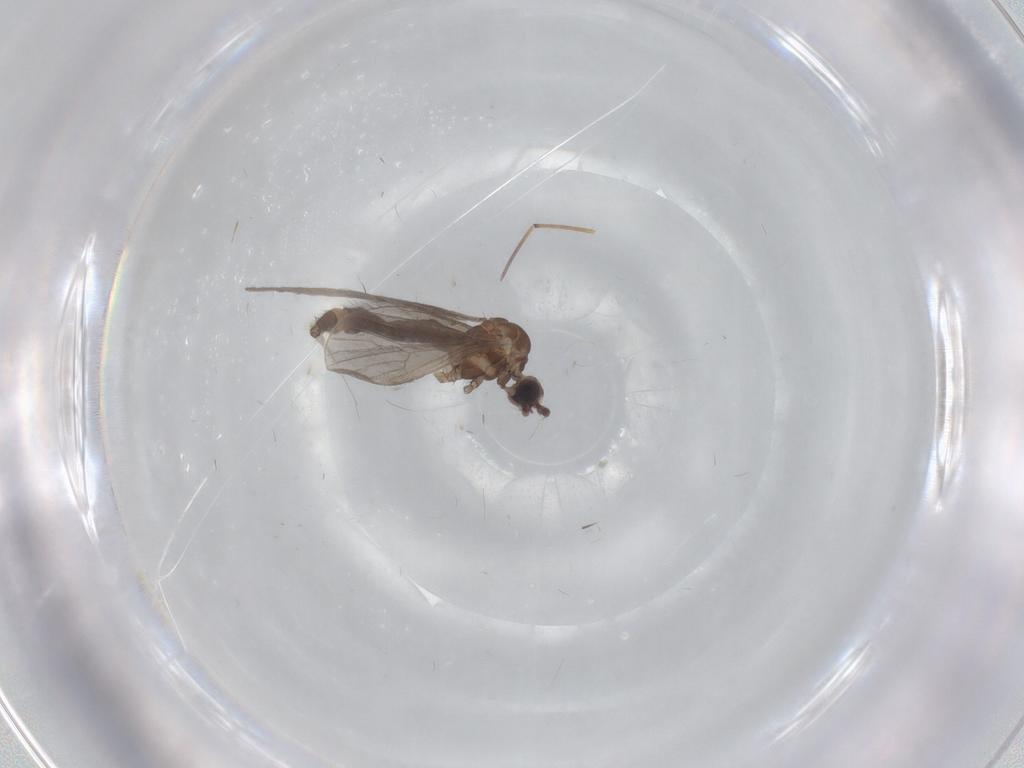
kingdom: Animalia
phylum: Arthropoda
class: Insecta
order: Diptera
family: Limoniidae
